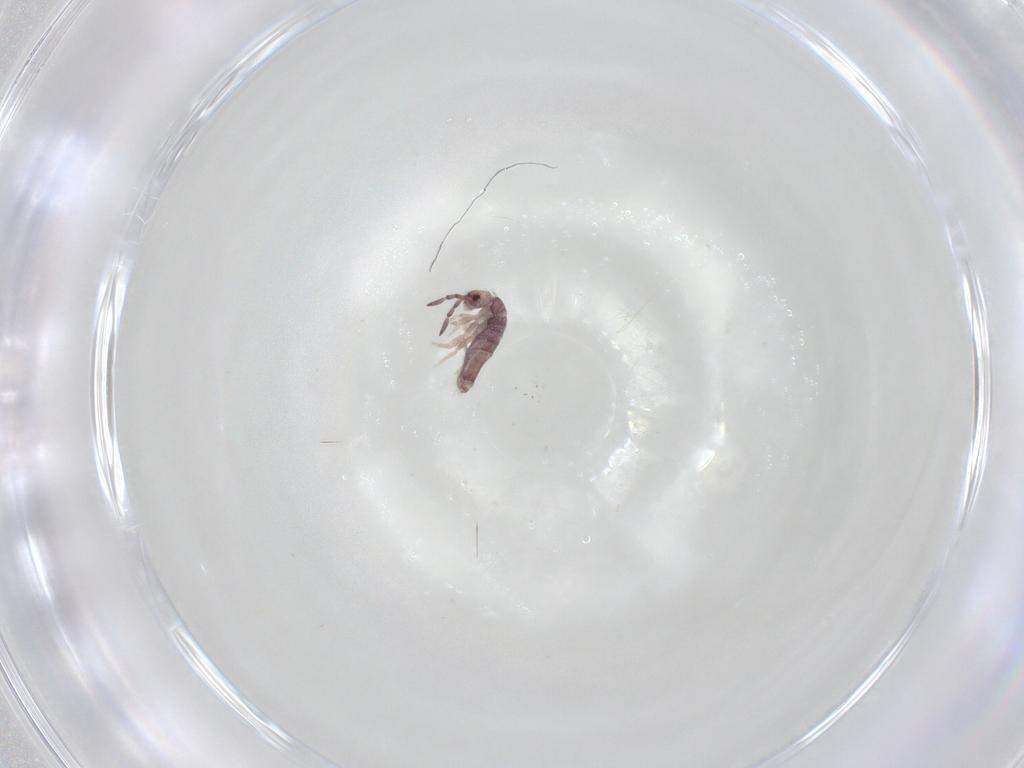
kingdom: Animalia
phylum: Arthropoda
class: Collembola
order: Entomobryomorpha
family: Entomobryidae
